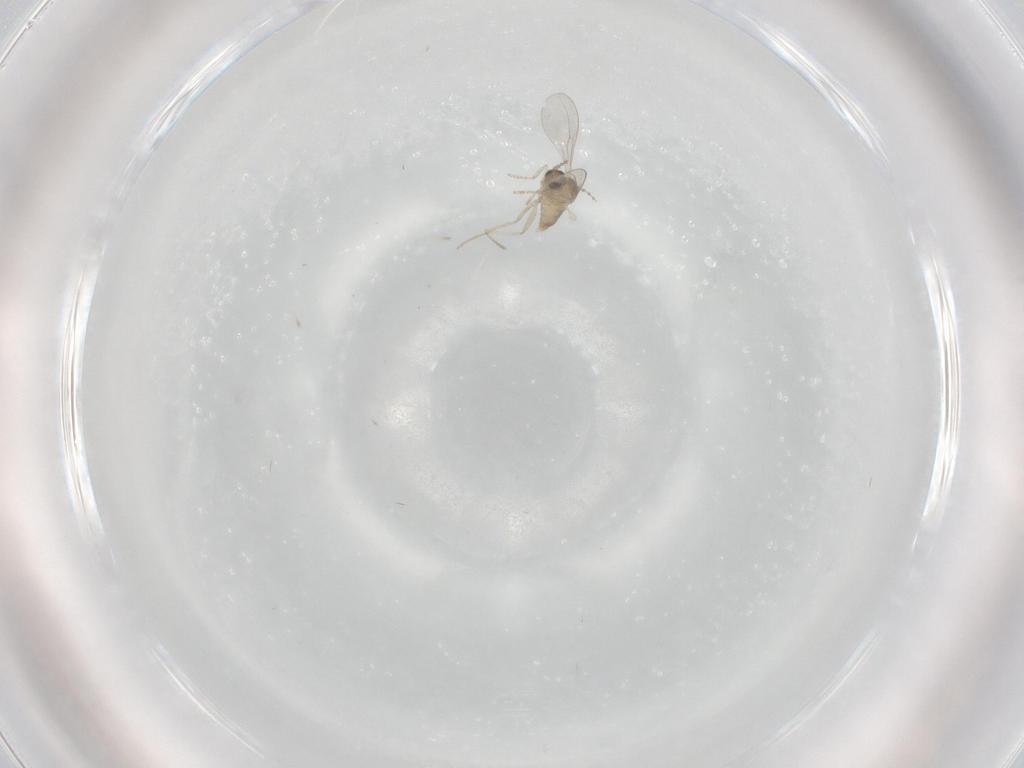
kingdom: Animalia
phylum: Arthropoda
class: Insecta
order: Diptera
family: Cecidomyiidae
